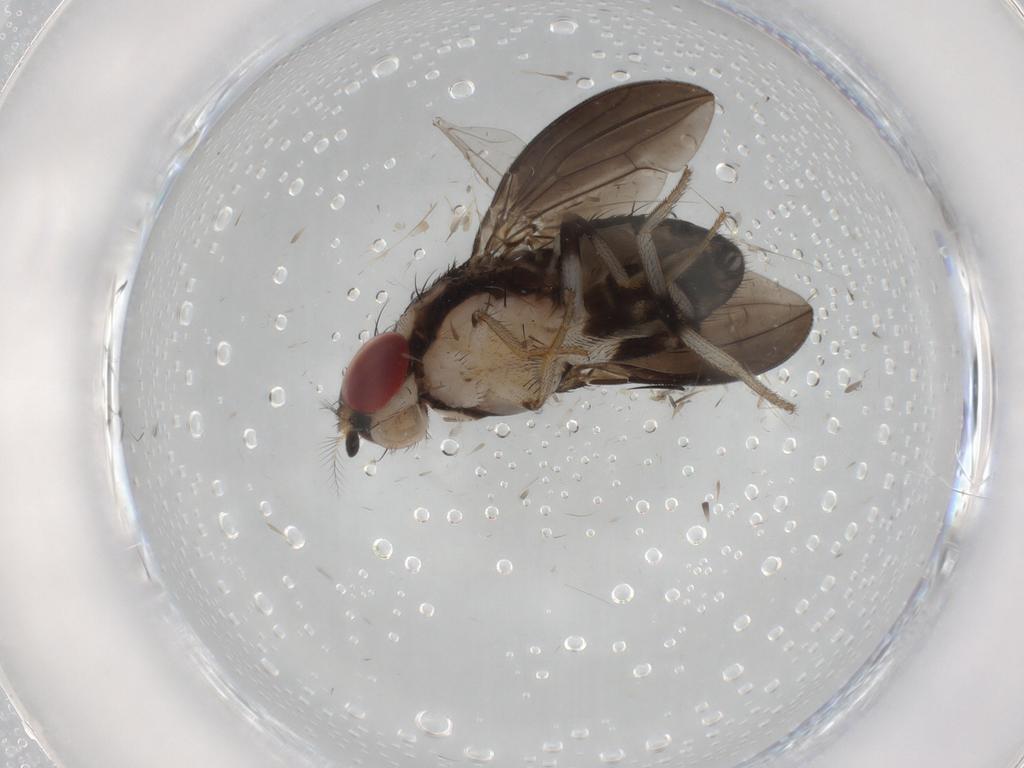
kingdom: Animalia
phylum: Arthropoda
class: Insecta
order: Diptera
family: Drosophilidae
